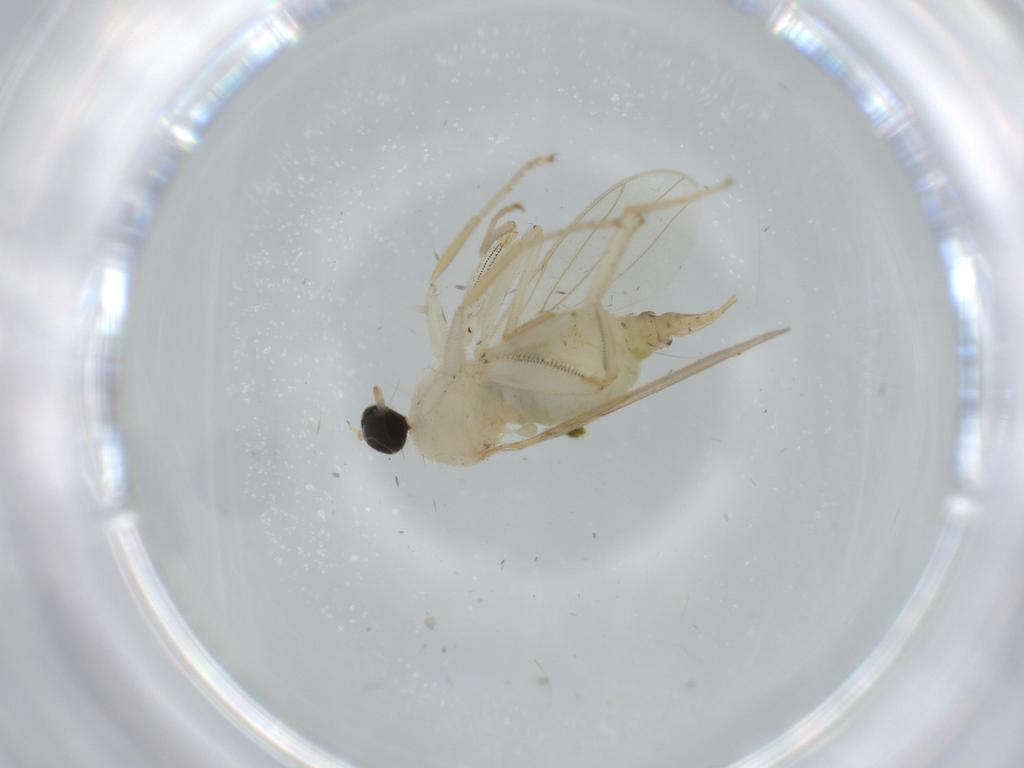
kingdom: Animalia
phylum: Arthropoda
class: Insecta
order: Diptera
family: Hybotidae
